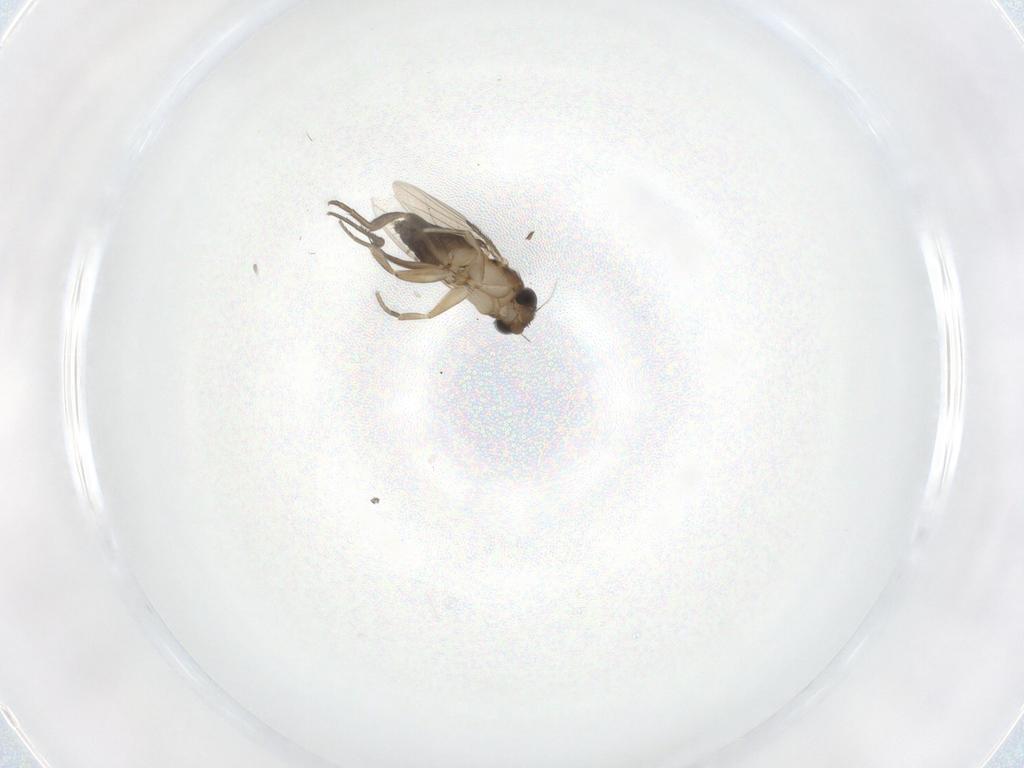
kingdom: Animalia
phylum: Arthropoda
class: Insecta
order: Diptera
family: Phoridae
